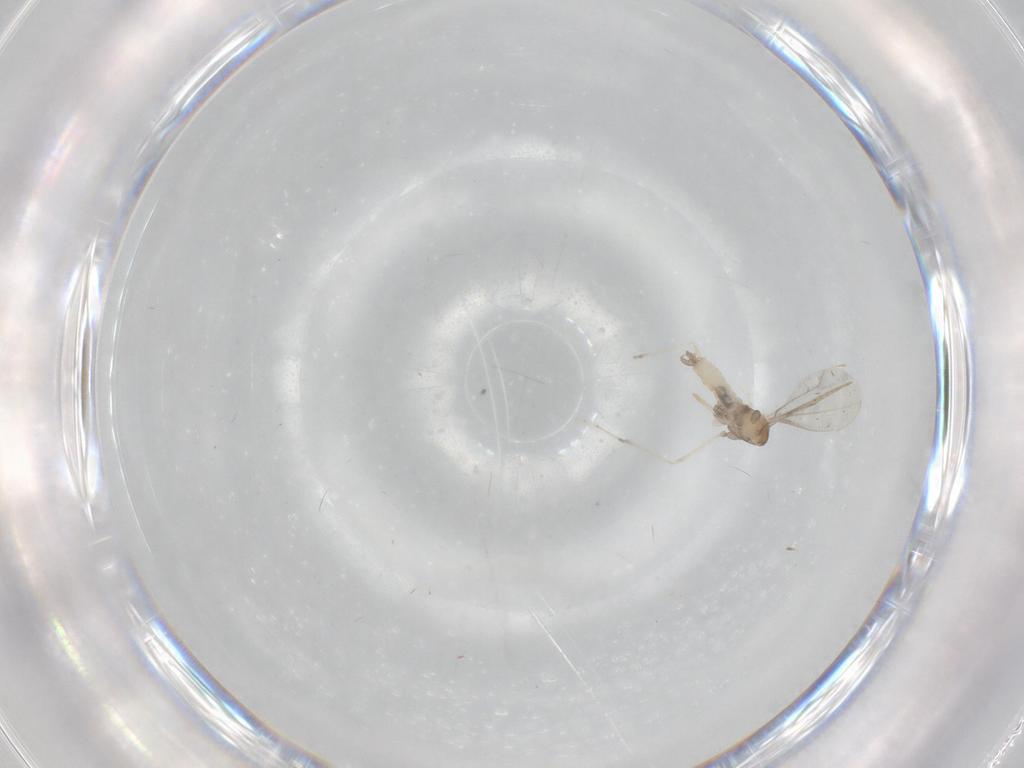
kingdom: Animalia
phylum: Arthropoda
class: Insecta
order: Diptera
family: Cecidomyiidae
